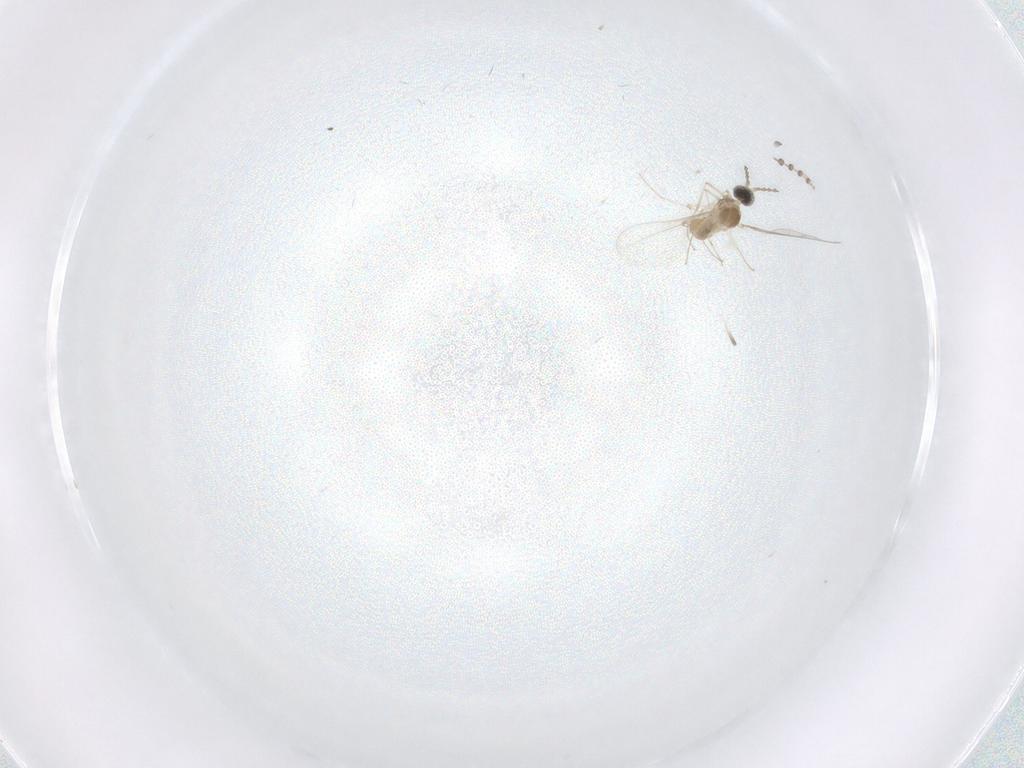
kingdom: Animalia
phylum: Arthropoda
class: Insecta
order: Diptera
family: Psychodidae
